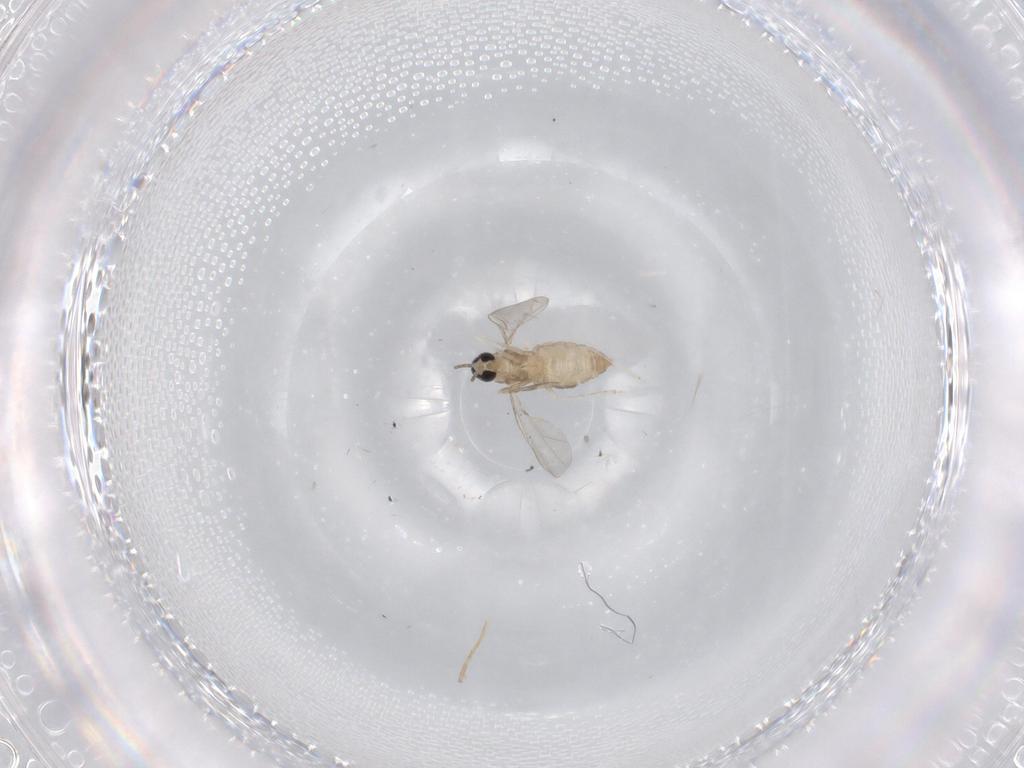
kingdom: Animalia
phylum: Arthropoda
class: Insecta
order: Diptera
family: Cecidomyiidae
